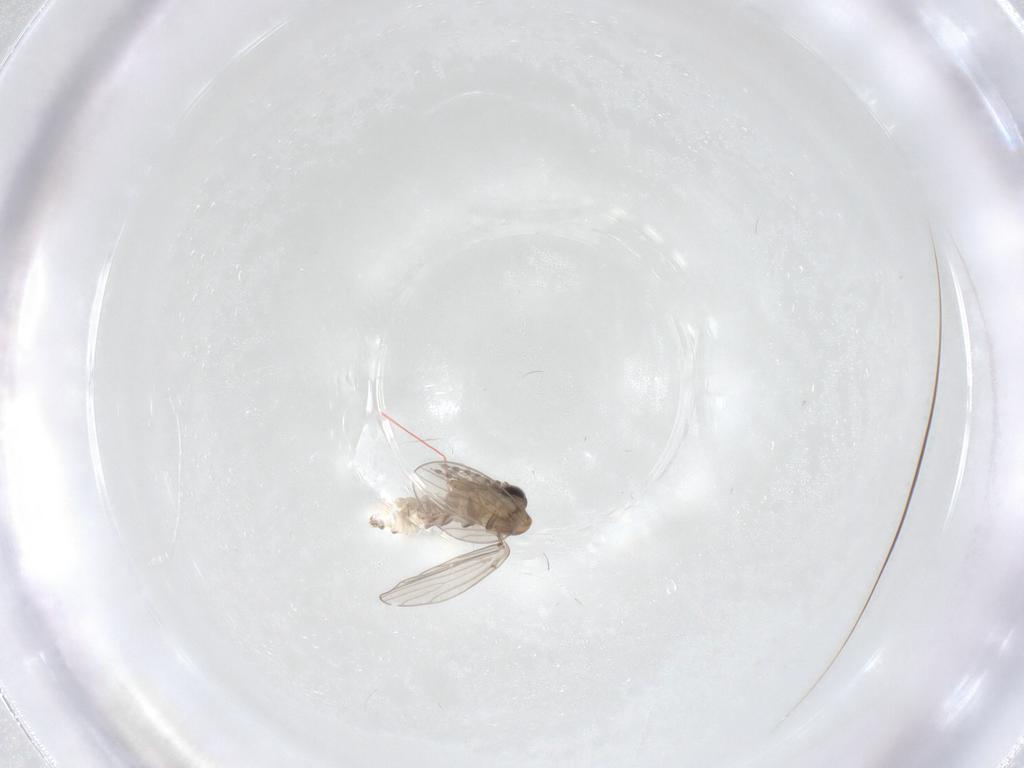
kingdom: Animalia
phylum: Arthropoda
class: Insecta
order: Diptera
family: Psychodidae
